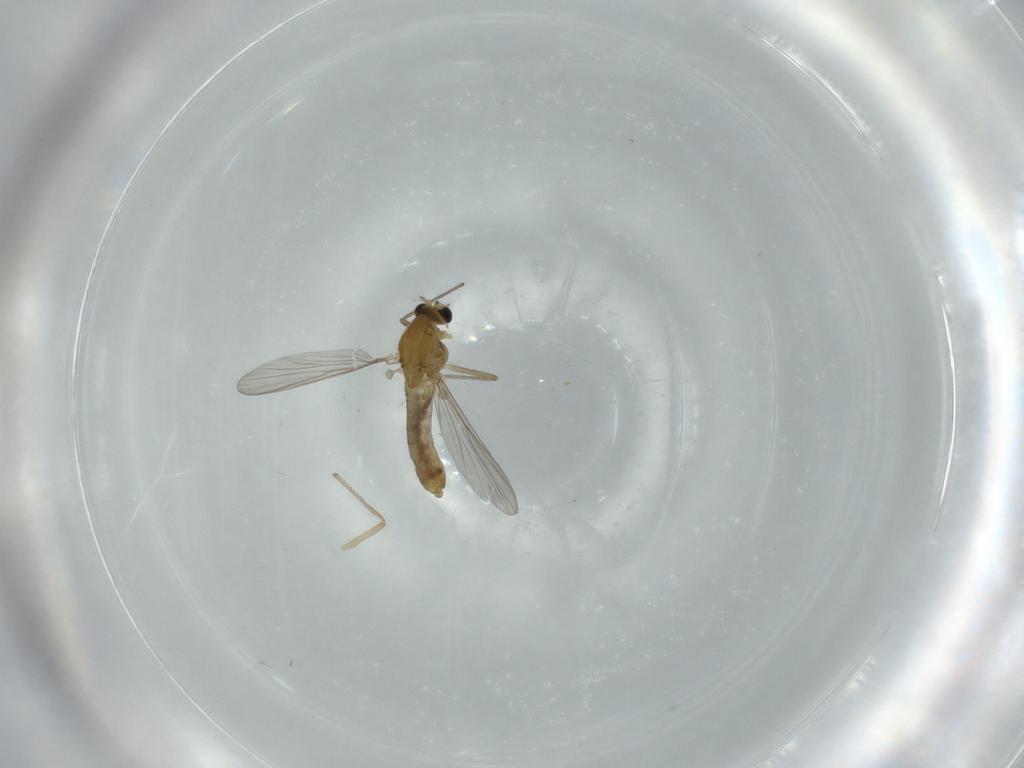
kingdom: Animalia
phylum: Arthropoda
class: Insecta
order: Diptera
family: Chironomidae
